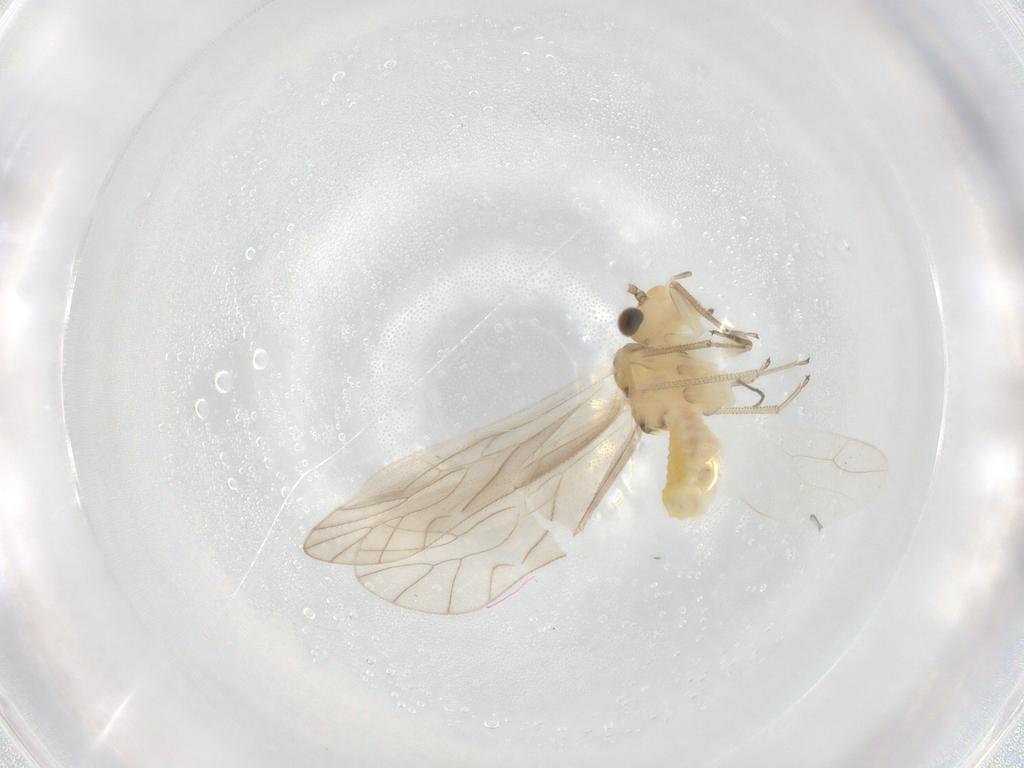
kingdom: Animalia
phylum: Arthropoda
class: Insecta
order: Psocodea
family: Caeciliusidae
